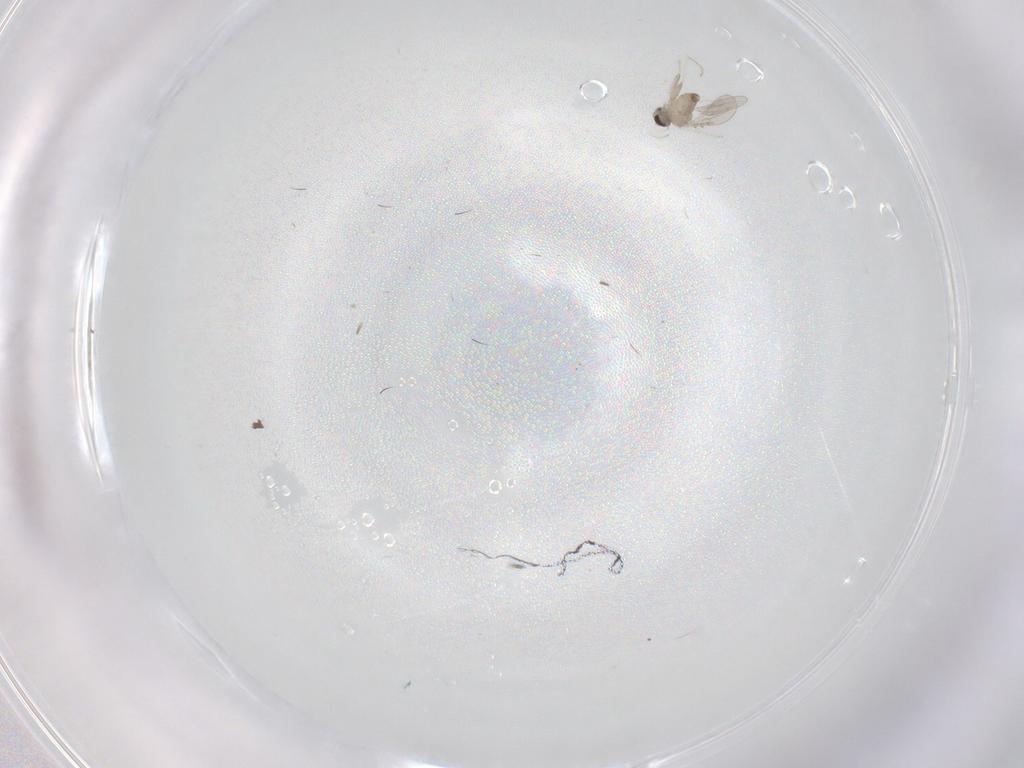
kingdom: Animalia
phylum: Arthropoda
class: Insecta
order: Diptera
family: Cecidomyiidae
